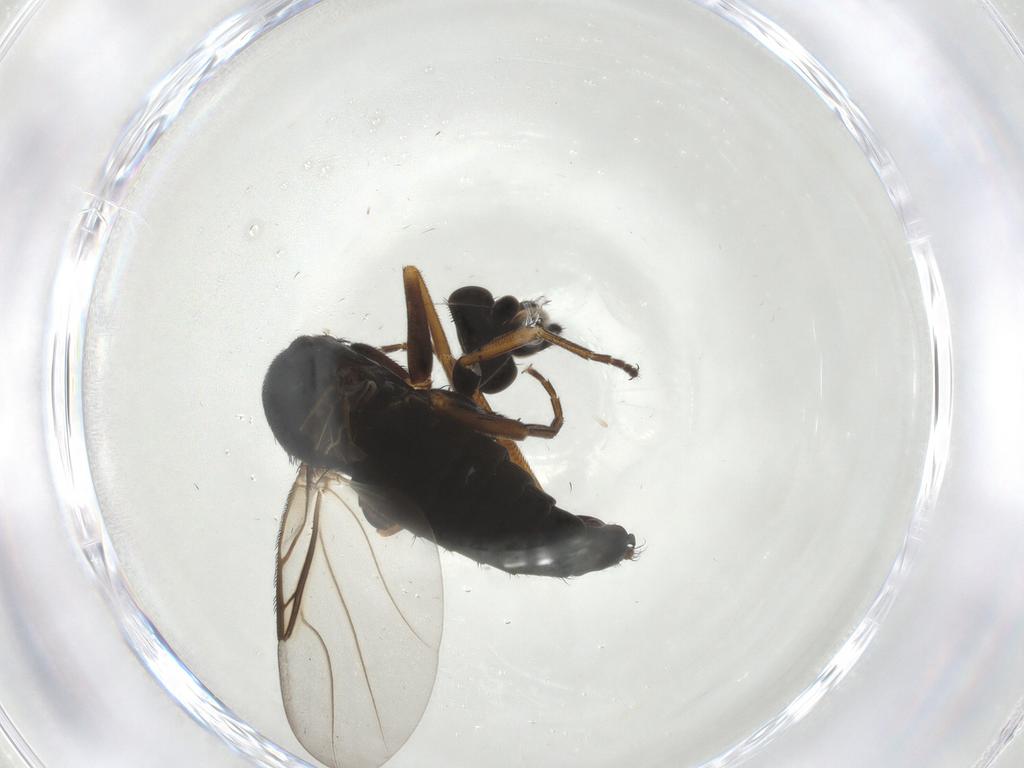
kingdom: Animalia
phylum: Arthropoda
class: Insecta
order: Diptera
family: Phoridae
